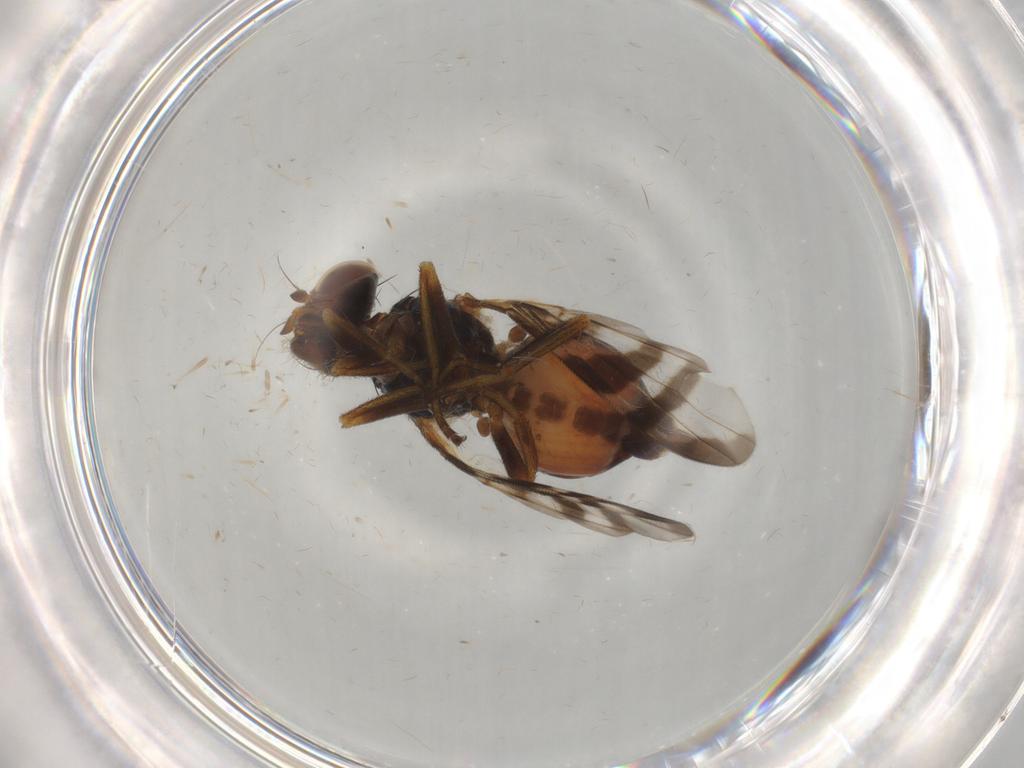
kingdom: Animalia
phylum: Arthropoda
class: Insecta
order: Diptera
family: Platystomatidae
